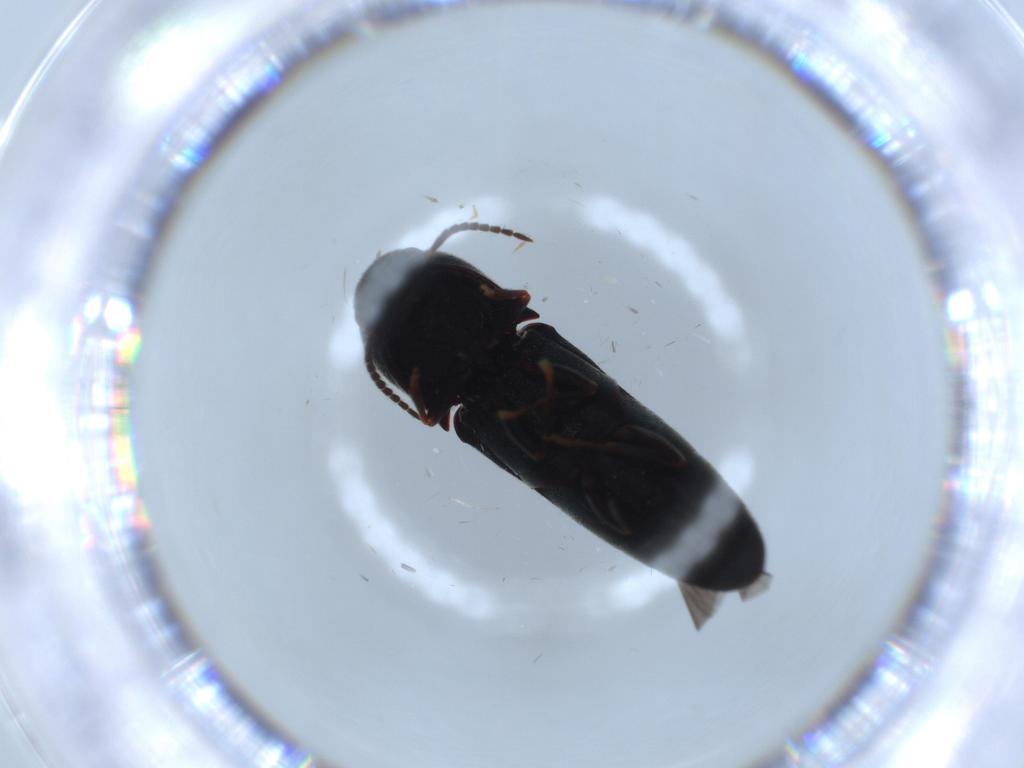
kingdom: Animalia
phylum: Arthropoda
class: Insecta
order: Coleoptera
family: Eucnemidae
